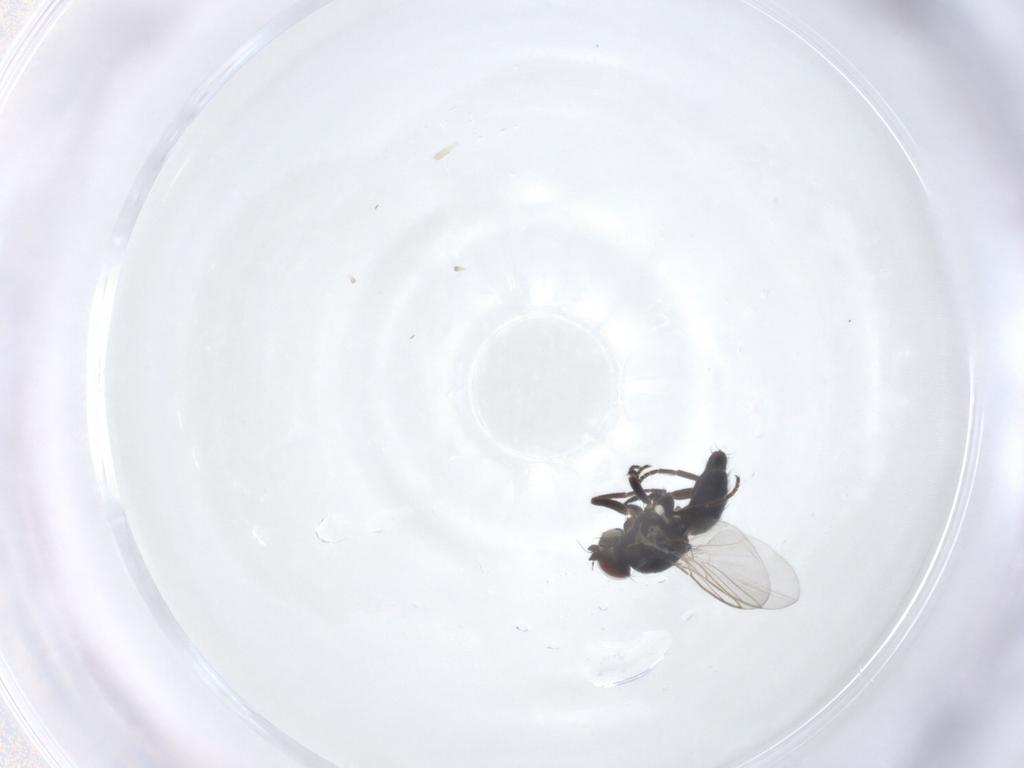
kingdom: Animalia
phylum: Arthropoda
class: Insecta
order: Diptera
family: Agromyzidae
